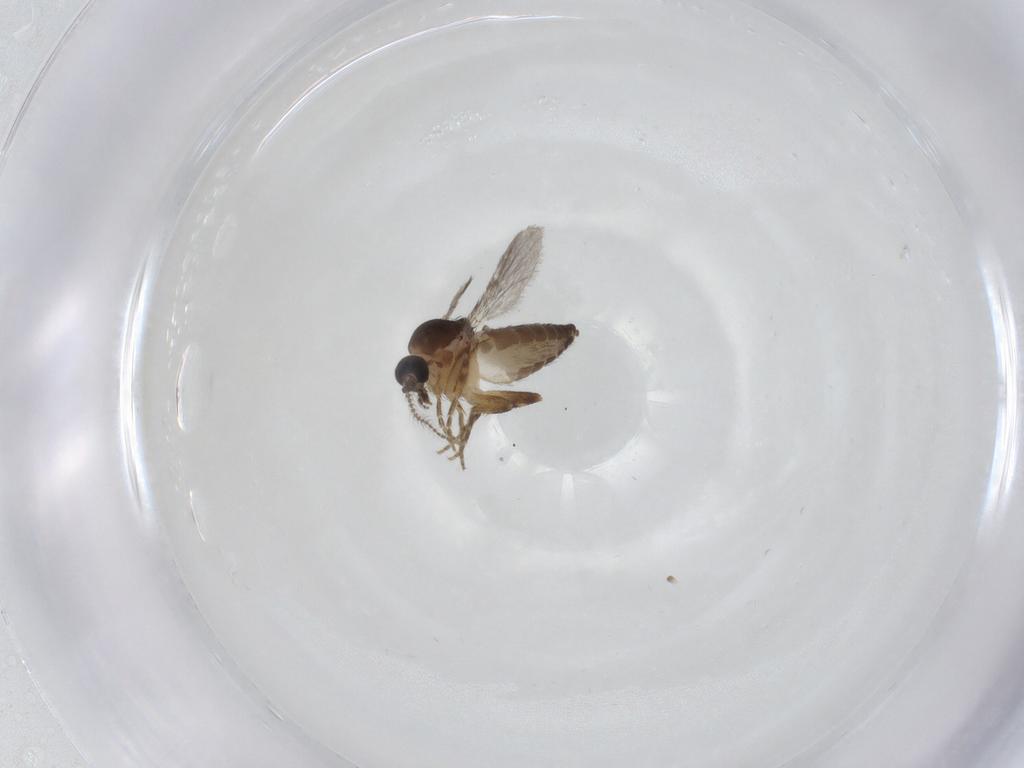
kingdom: Animalia
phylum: Arthropoda
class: Insecta
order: Diptera
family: Ceratopogonidae
